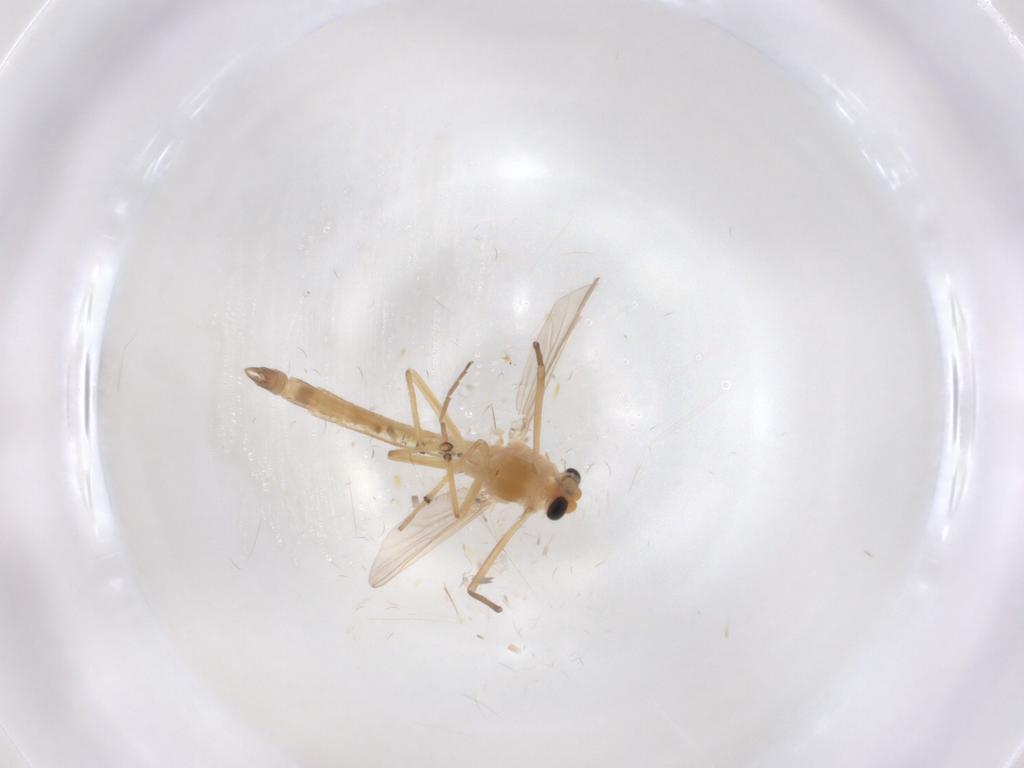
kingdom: Animalia
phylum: Arthropoda
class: Insecta
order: Diptera
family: Chironomidae
